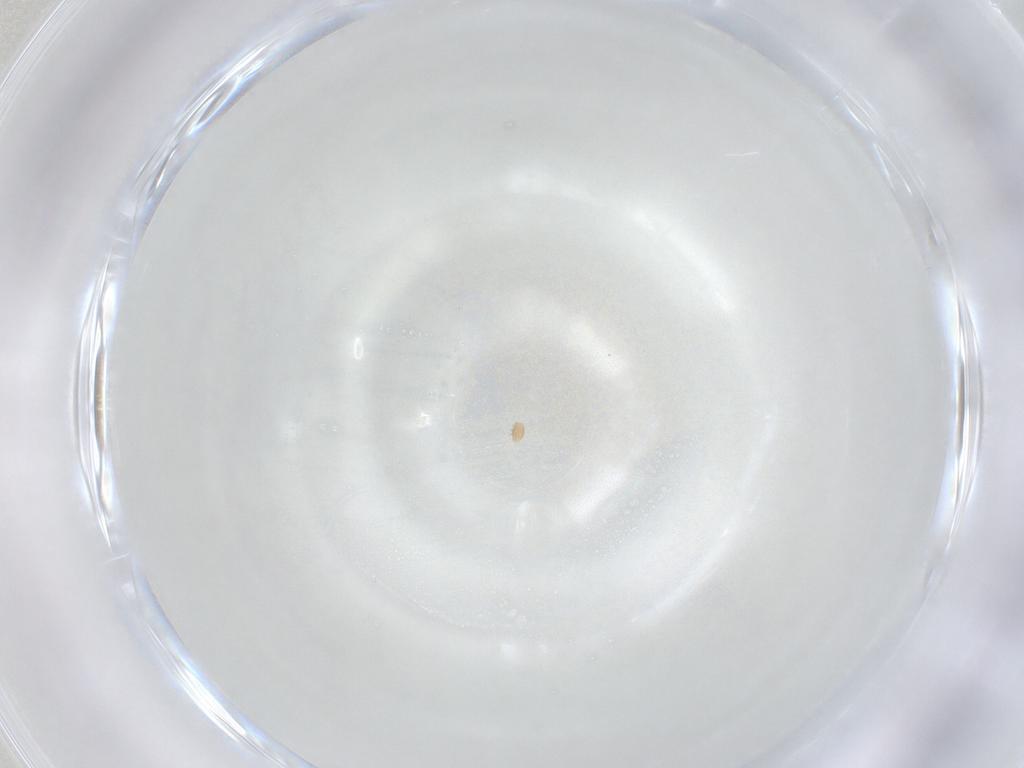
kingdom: Animalia
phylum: Arthropoda
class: Arachnida
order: Trombidiformes
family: Scutacaridae
